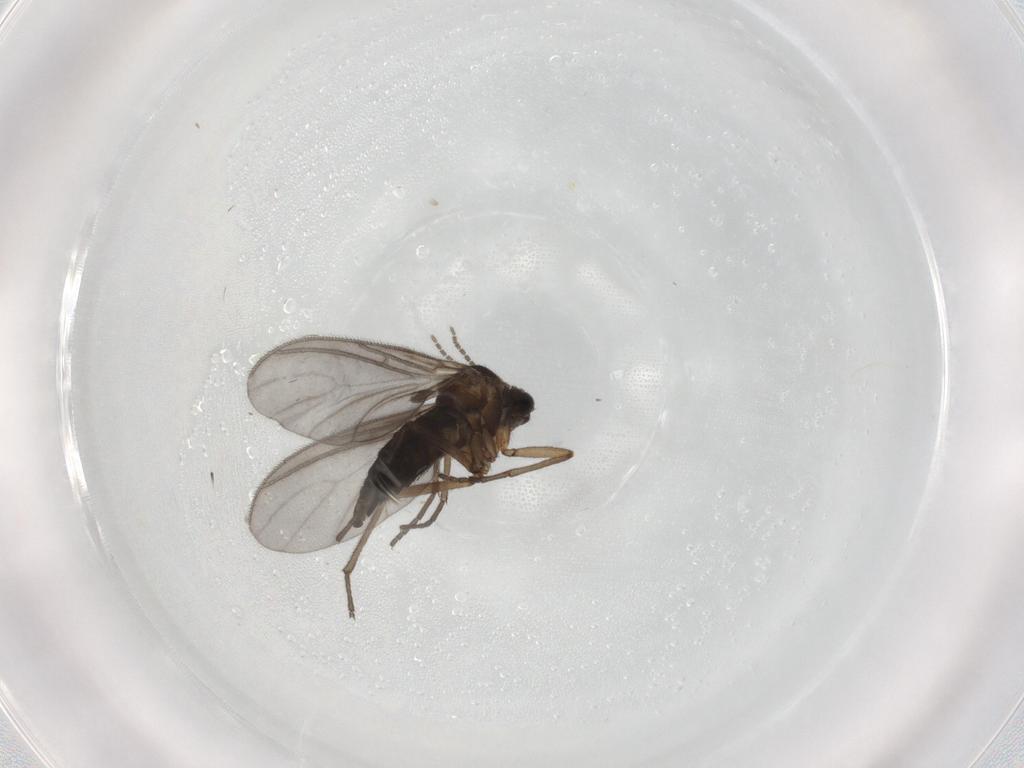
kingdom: Animalia
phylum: Arthropoda
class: Insecta
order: Diptera
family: Sciaridae
